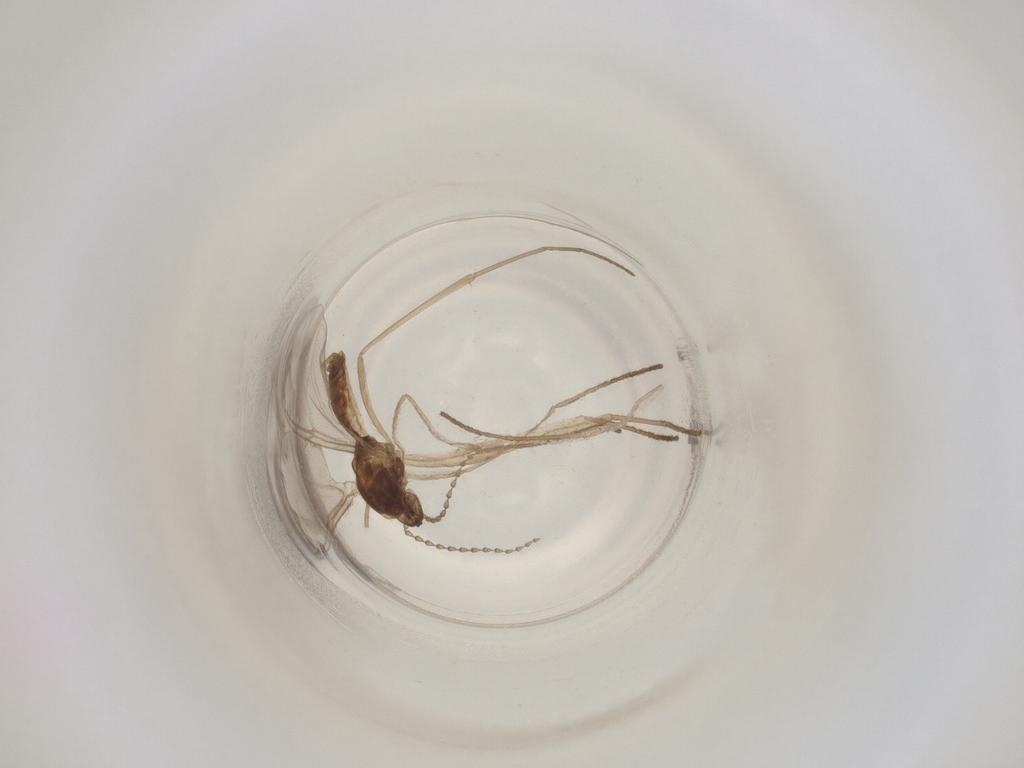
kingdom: Animalia
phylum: Arthropoda
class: Insecta
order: Diptera
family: Cecidomyiidae
